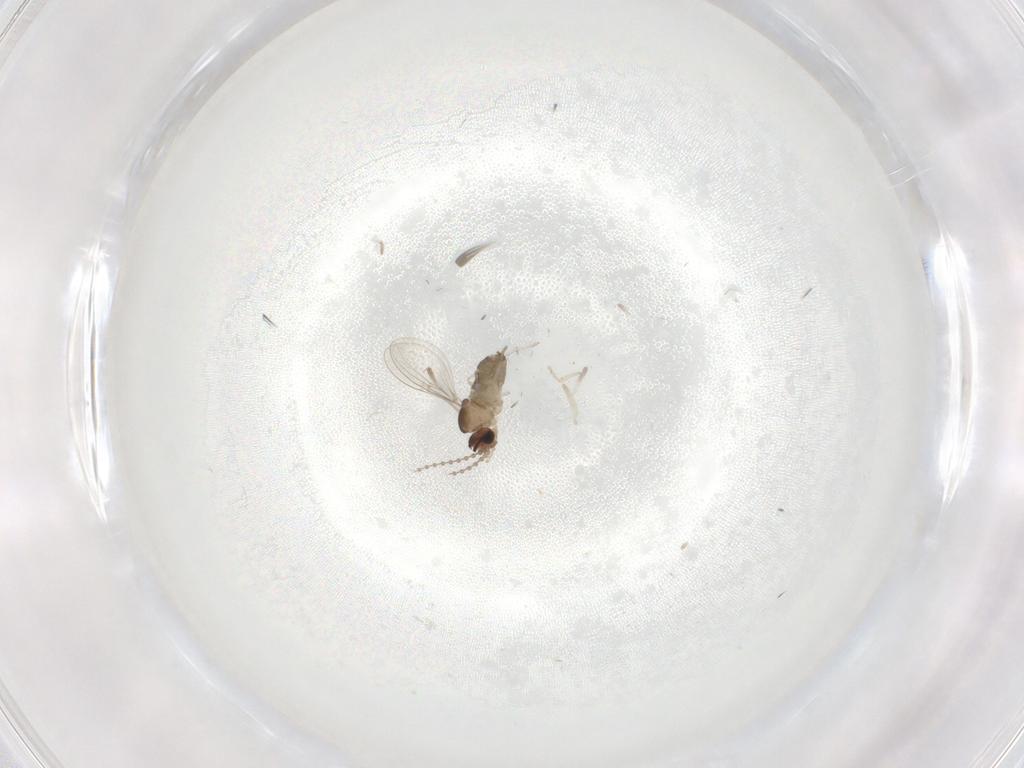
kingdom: Animalia
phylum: Arthropoda
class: Insecta
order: Diptera
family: Cecidomyiidae
